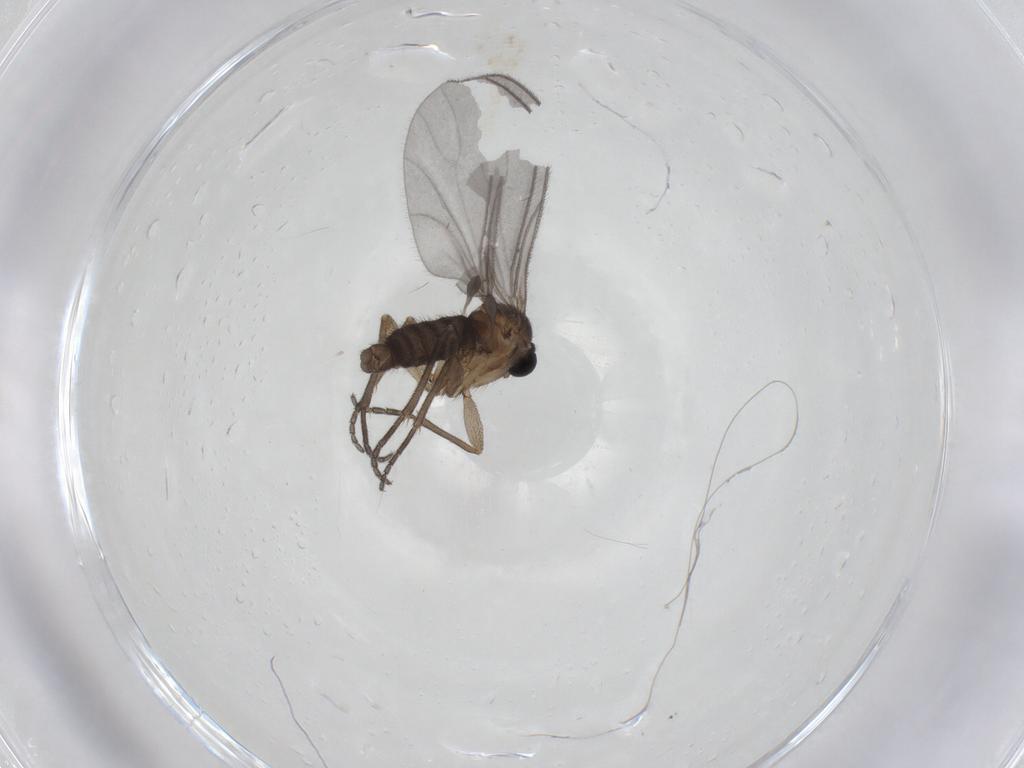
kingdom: Animalia
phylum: Arthropoda
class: Insecta
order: Diptera
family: Sciaridae
